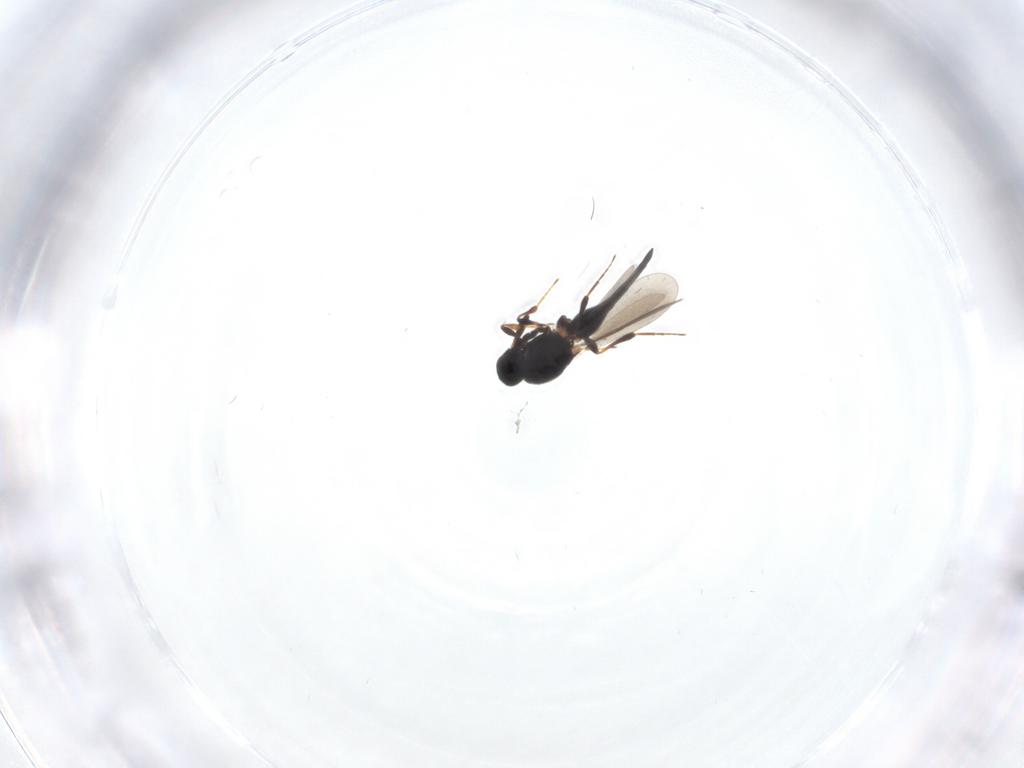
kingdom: Animalia
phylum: Arthropoda
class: Insecta
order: Hymenoptera
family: Platygastridae
